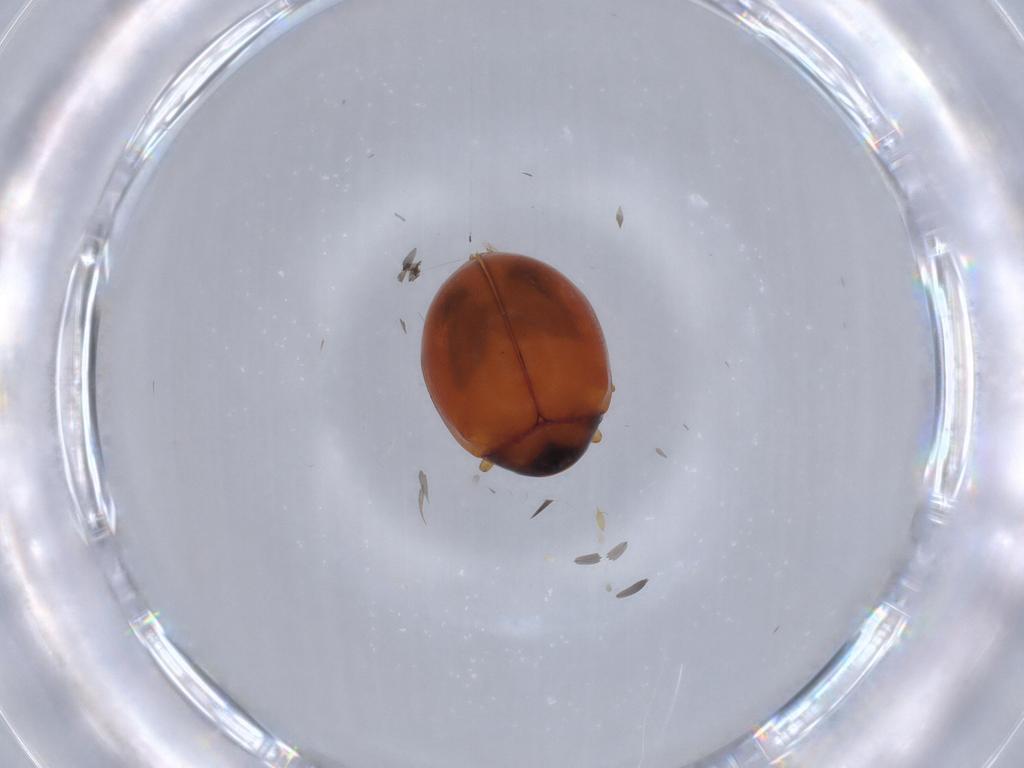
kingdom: Animalia
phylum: Arthropoda
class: Insecta
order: Coleoptera
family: Coccinellidae
